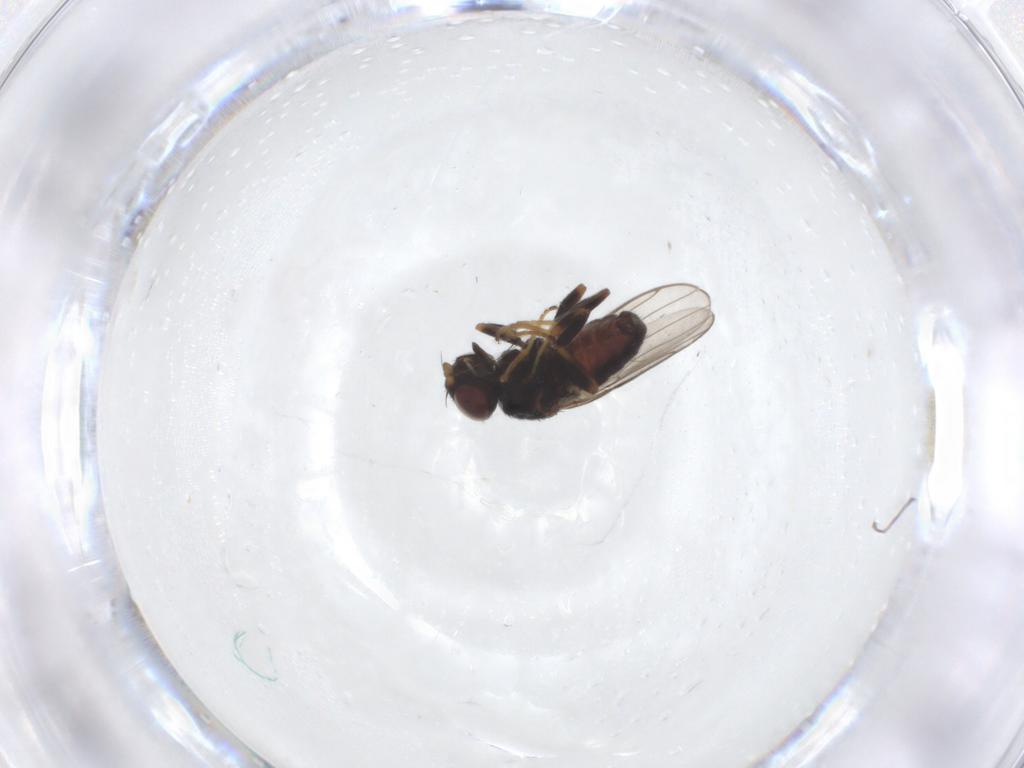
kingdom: Animalia
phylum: Arthropoda
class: Insecta
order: Diptera
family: Chloropidae
